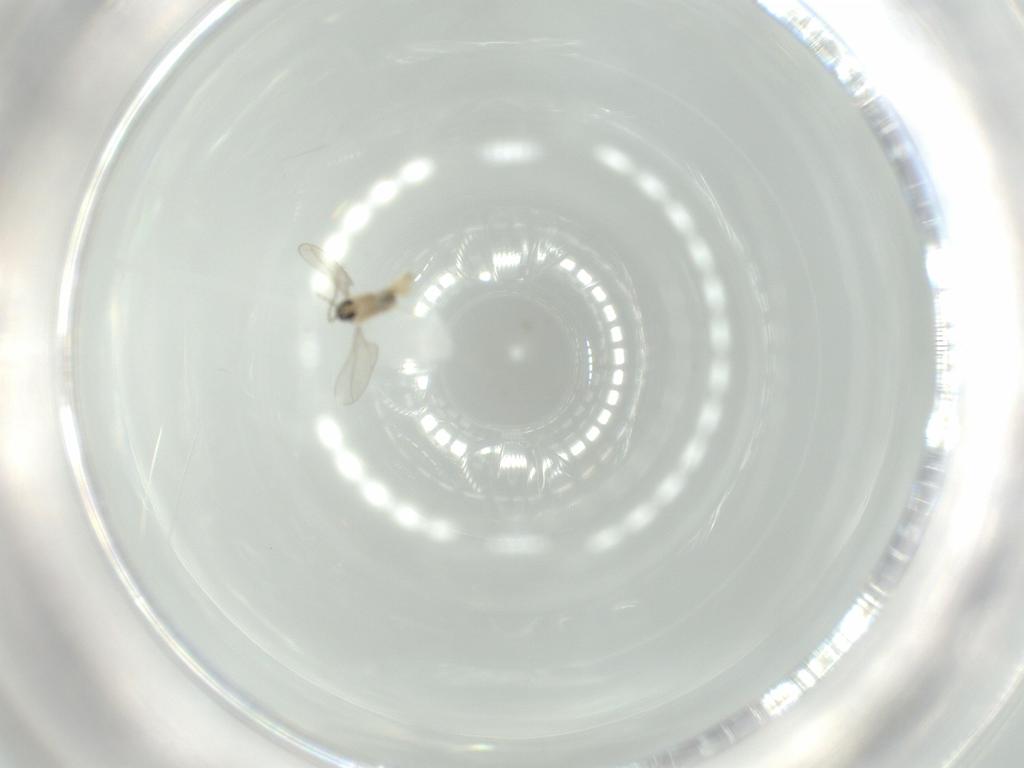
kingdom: Animalia
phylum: Arthropoda
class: Insecta
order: Diptera
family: Cecidomyiidae
